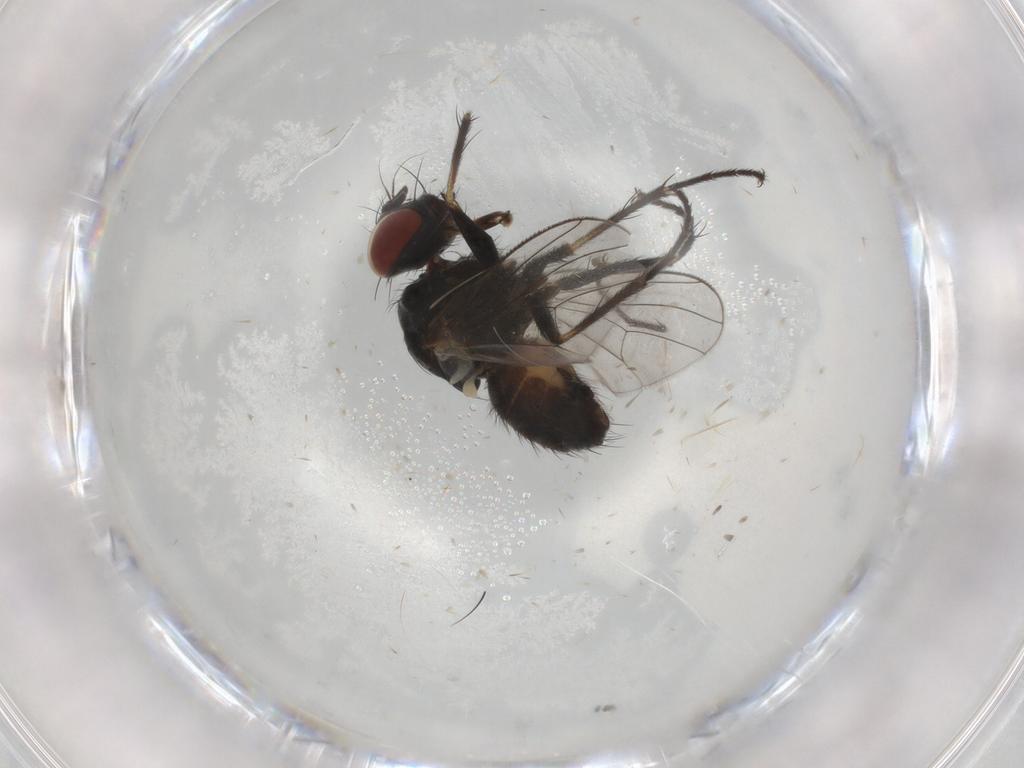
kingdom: Animalia
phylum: Arthropoda
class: Insecta
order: Diptera
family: Muscidae
